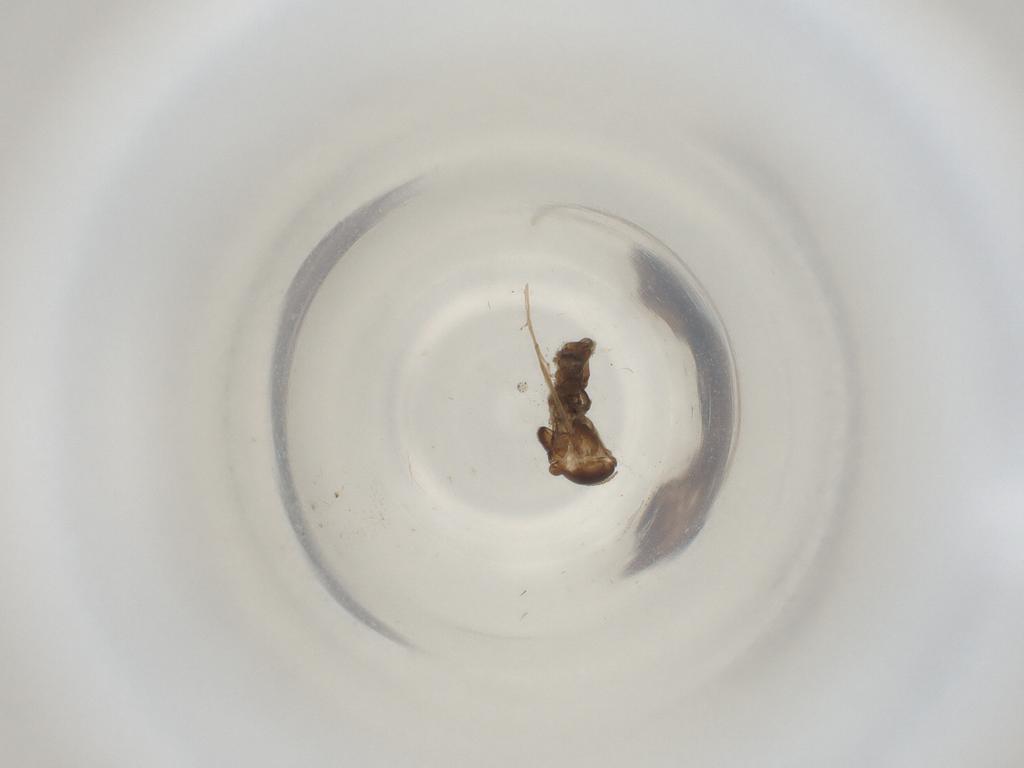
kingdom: Animalia
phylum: Arthropoda
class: Insecta
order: Diptera
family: Cecidomyiidae
